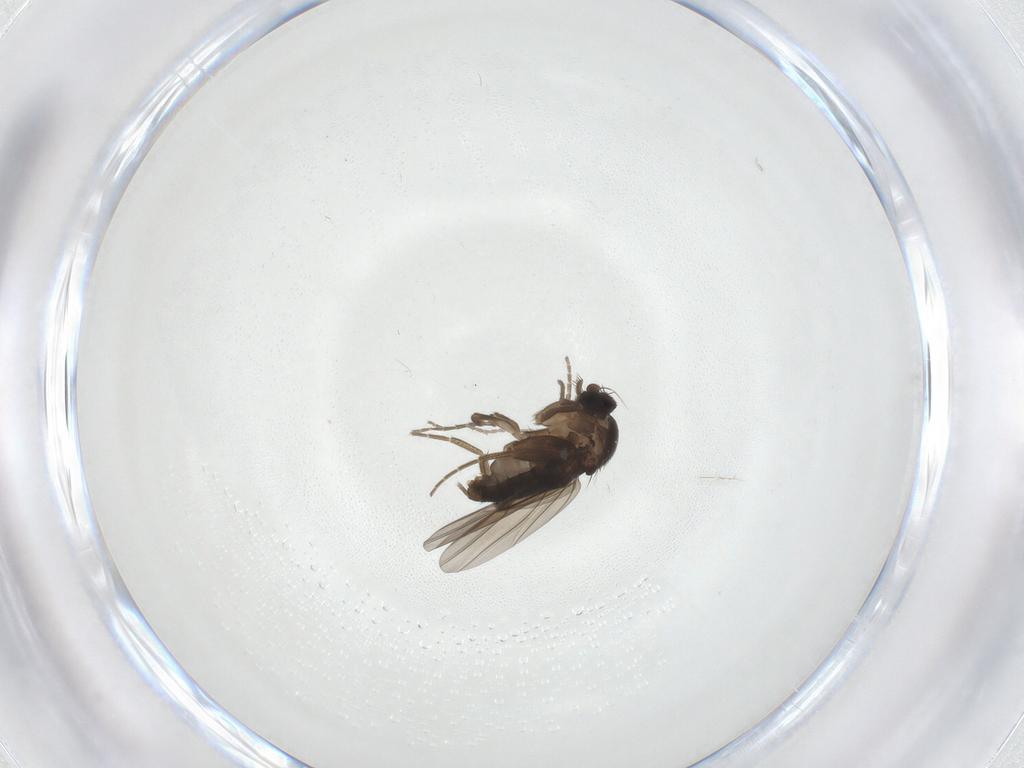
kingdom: Animalia
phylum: Arthropoda
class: Insecta
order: Diptera
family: Phoridae
